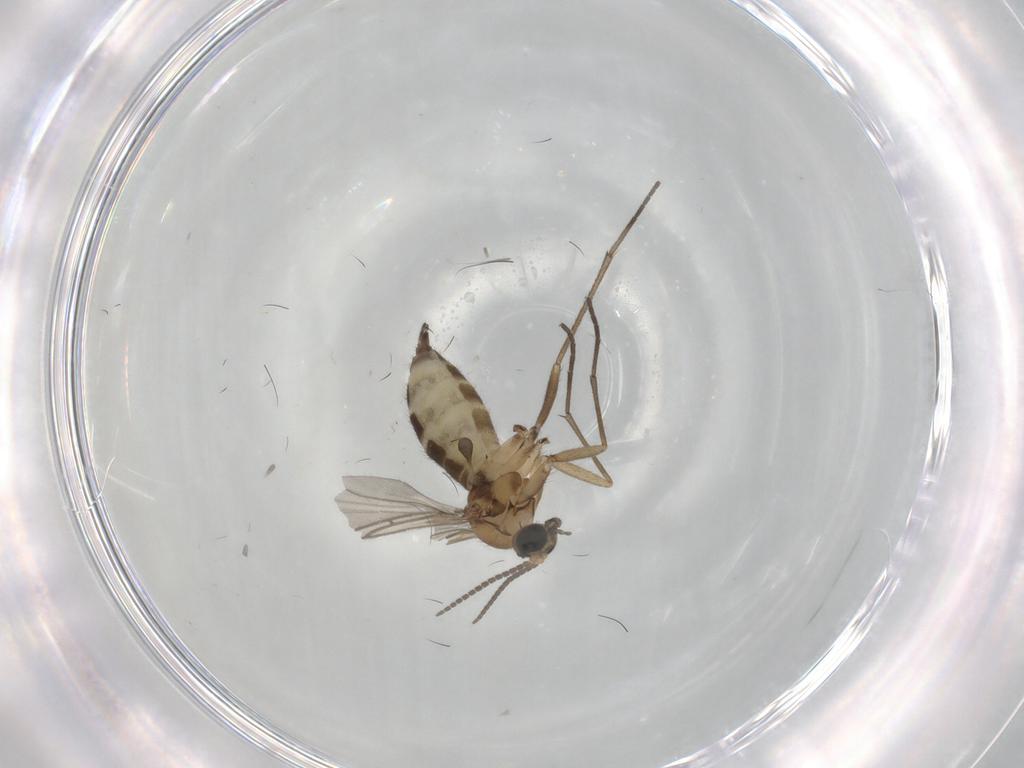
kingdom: Animalia
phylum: Arthropoda
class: Insecta
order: Diptera
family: Sciaridae
